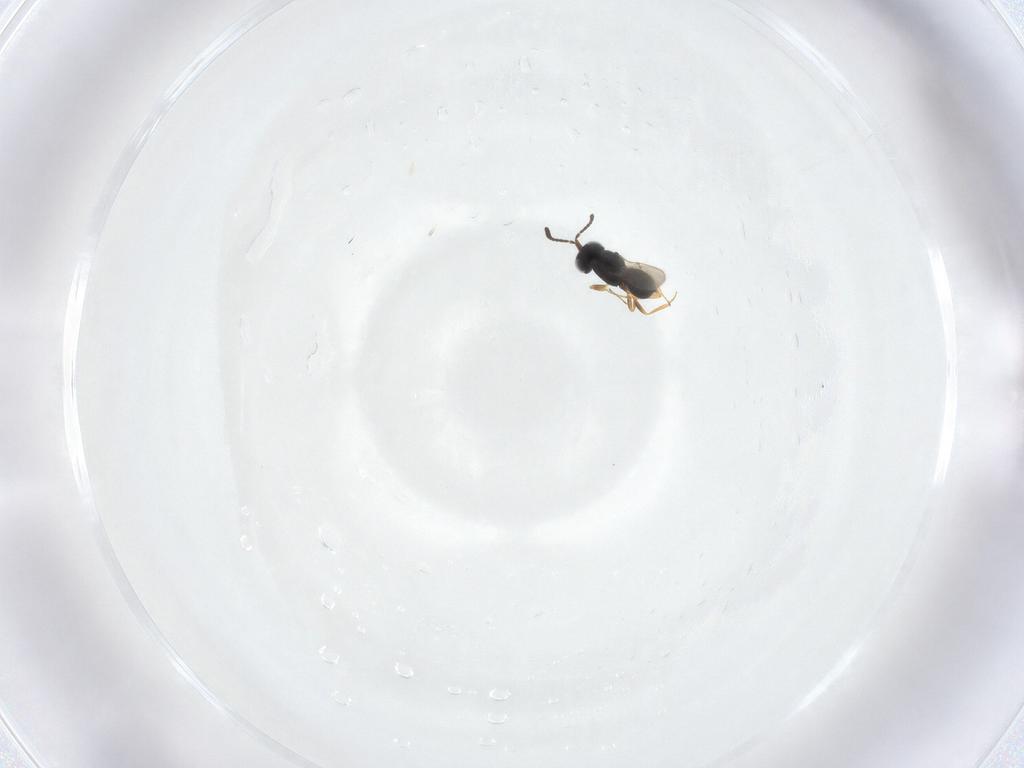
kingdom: Animalia
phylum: Arthropoda
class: Insecta
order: Hymenoptera
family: Scelionidae
